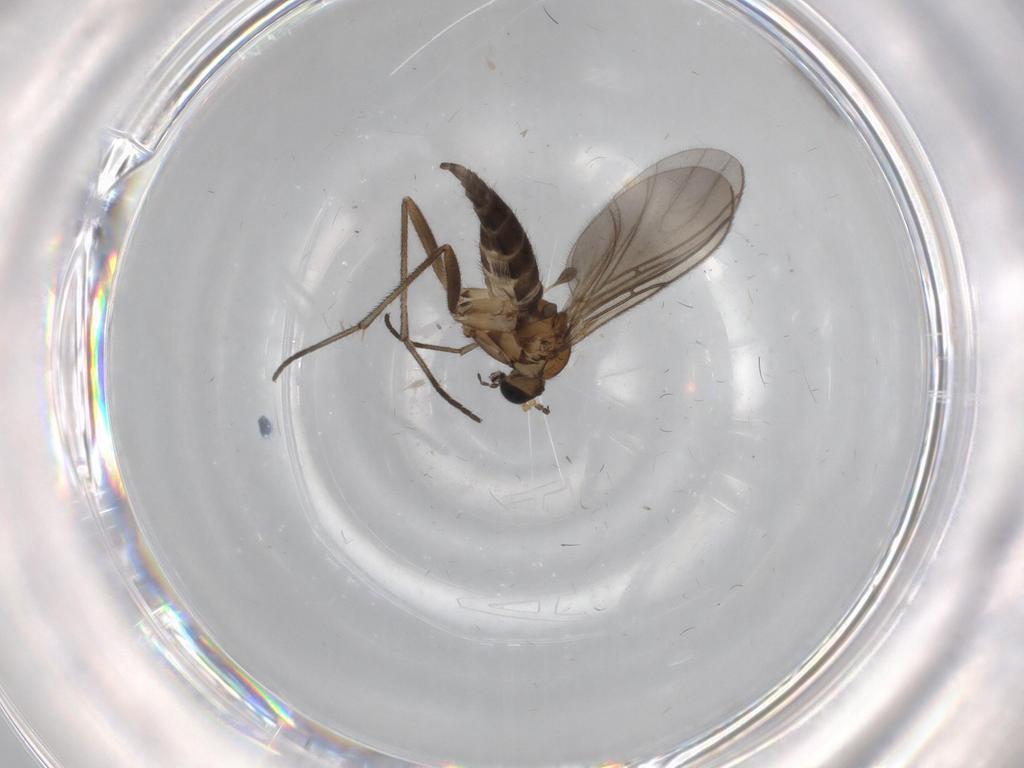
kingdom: Animalia
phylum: Arthropoda
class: Insecta
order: Diptera
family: Sciaridae
